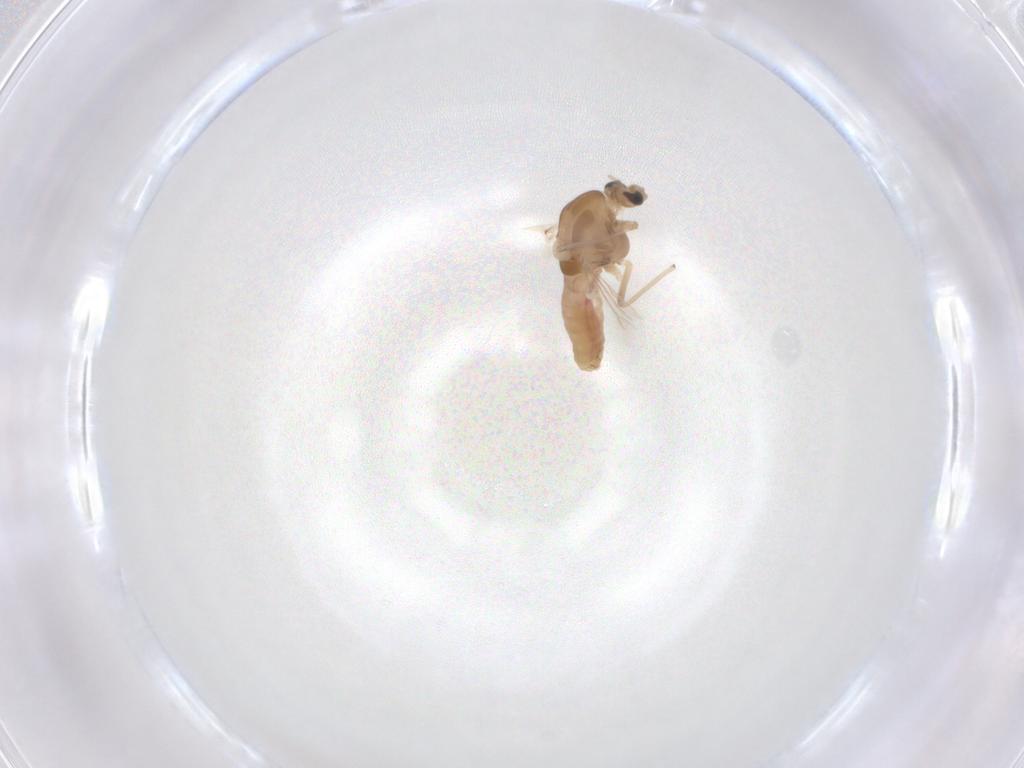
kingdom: Animalia
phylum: Arthropoda
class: Insecta
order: Diptera
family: Chironomidae
